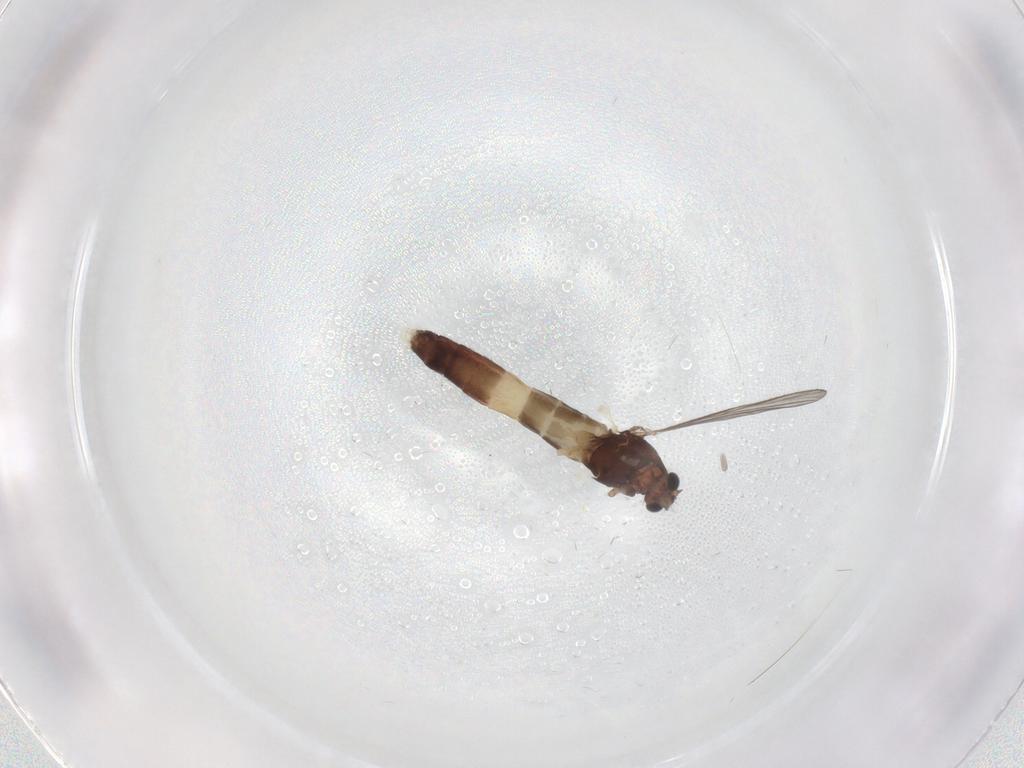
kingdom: Animalia
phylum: Arthropoda
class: Insecta
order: Diptera
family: Chironomidae
